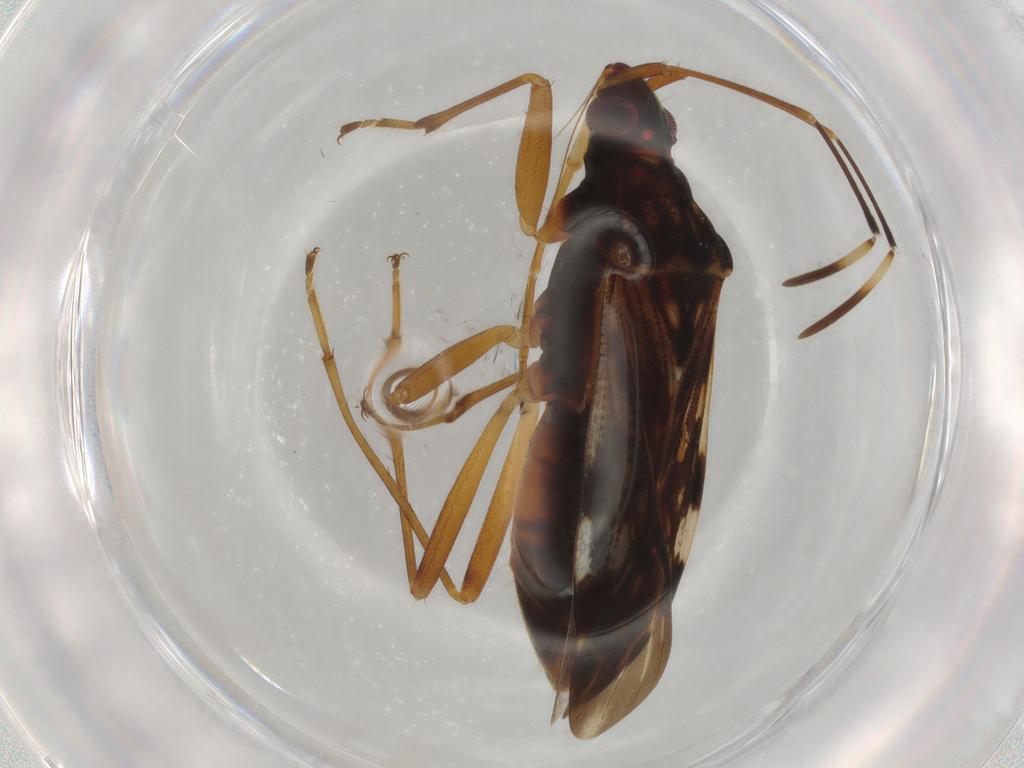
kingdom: Animalia
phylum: Arthropoda
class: Insecta
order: Hemiptera
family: Rhyparochromidae
